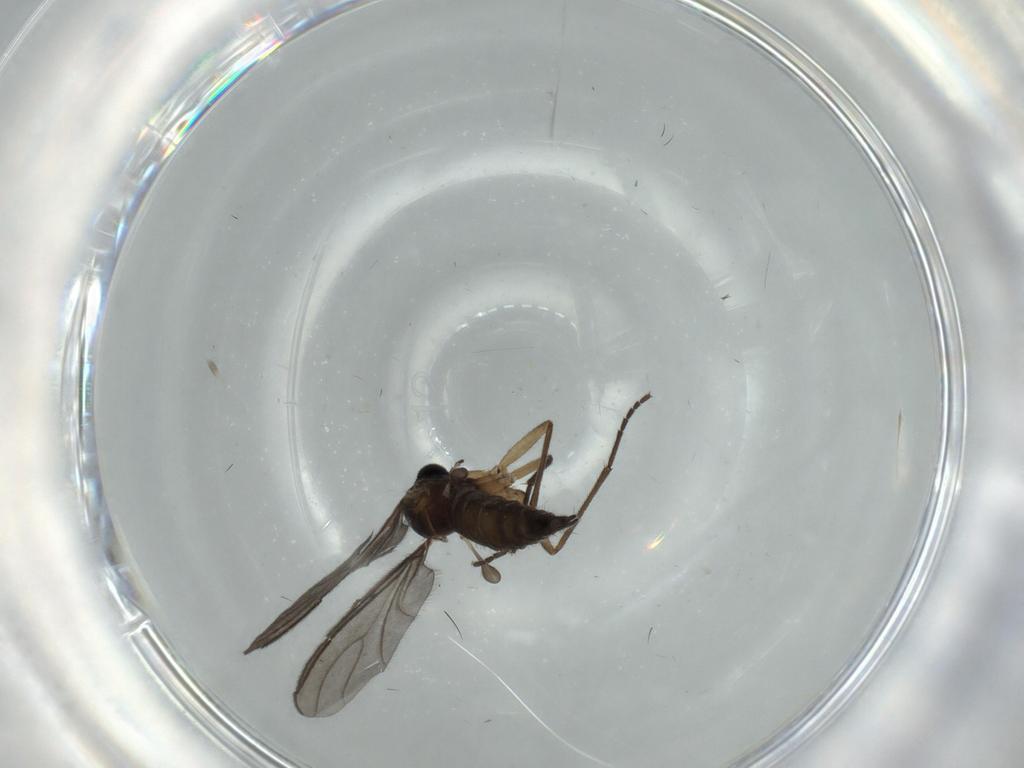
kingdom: Animalia
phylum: Arthropoda
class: Insecta
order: Diptera
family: Sciaridae
